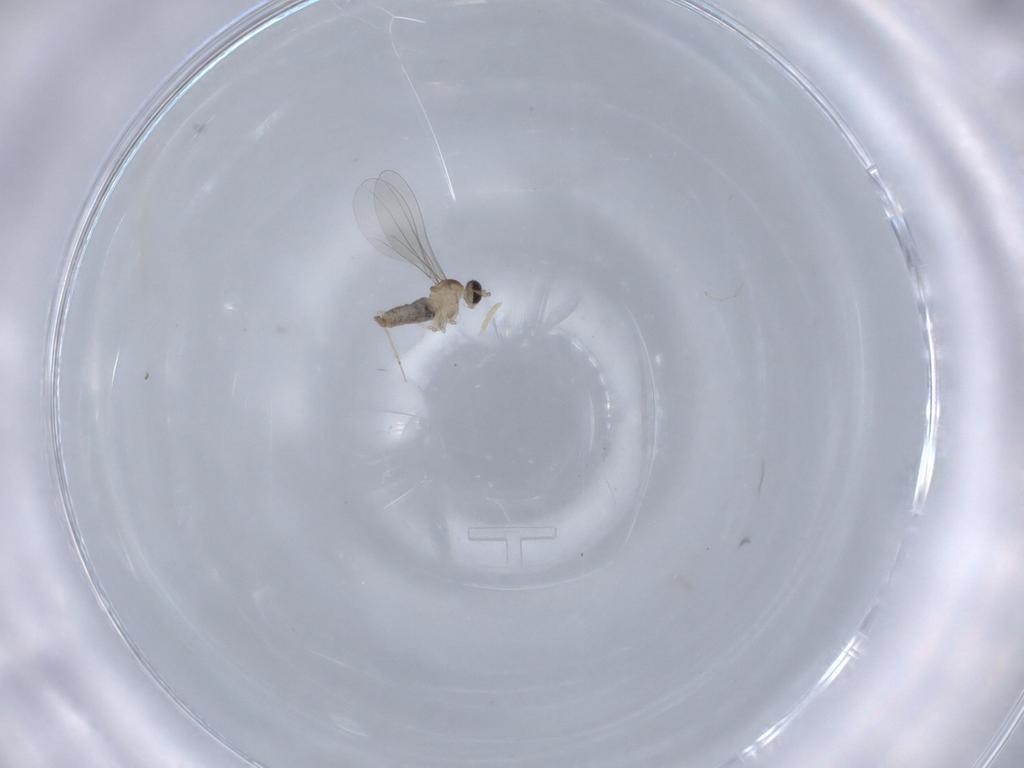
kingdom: Animalia
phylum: Arthropoda
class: Insecta
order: Diptera
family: Cecidomyiidae
